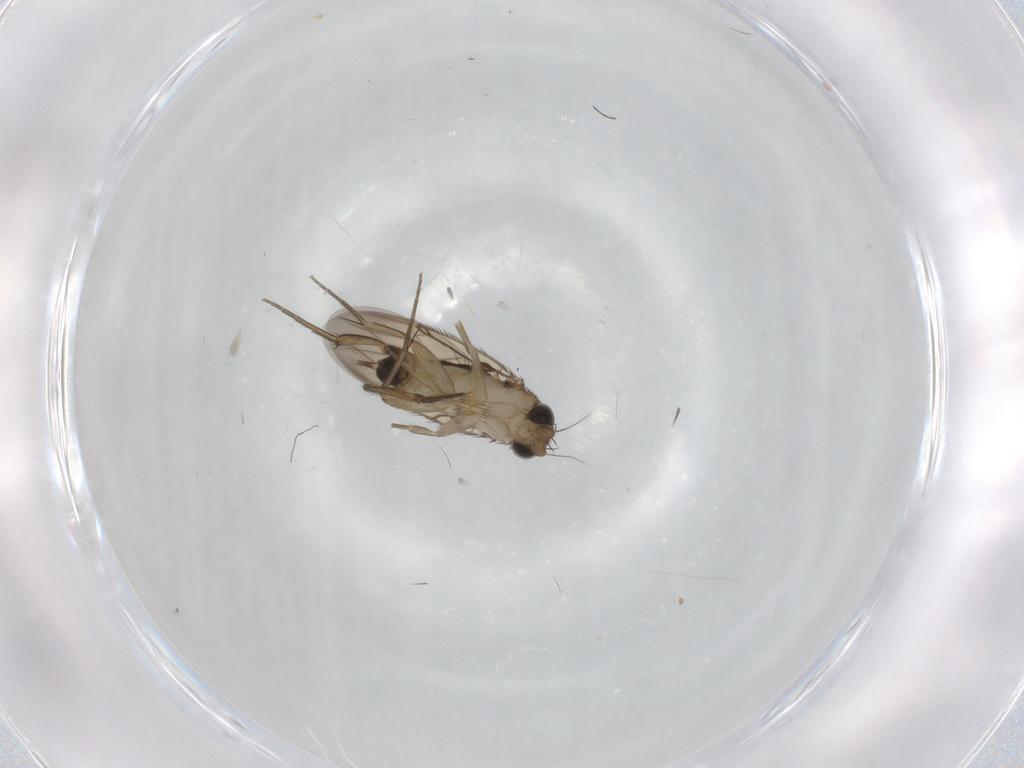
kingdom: Animalia
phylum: Arthropoda
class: Insecta
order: Diptera
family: Phoridae
